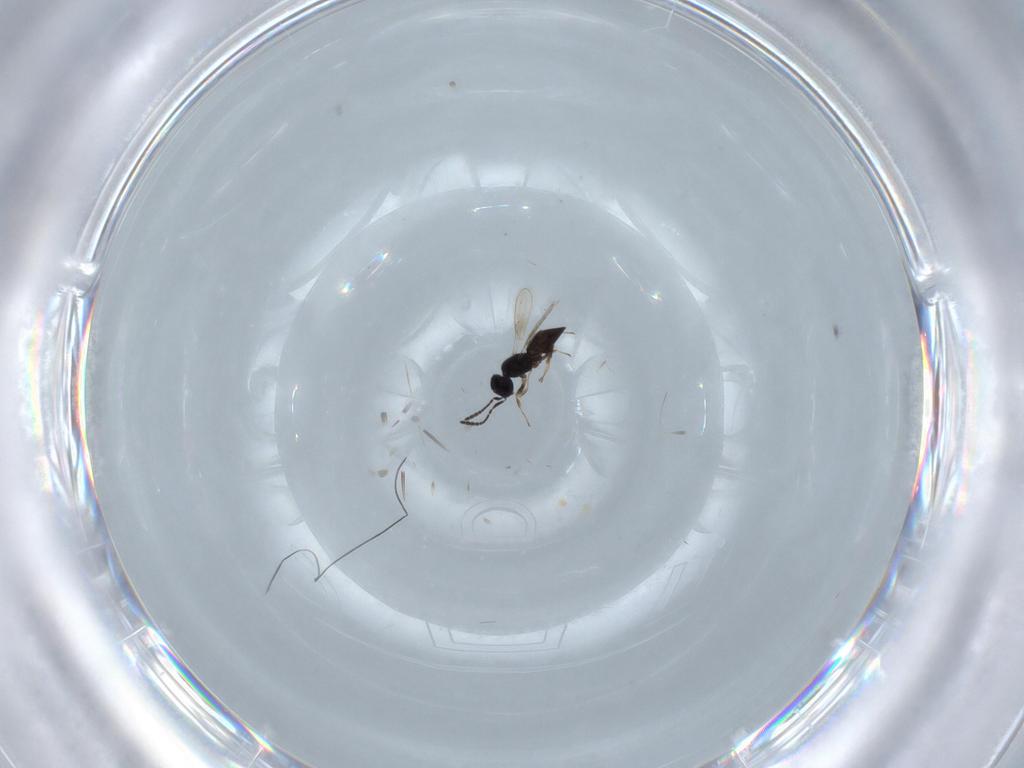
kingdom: Animalia
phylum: Arthropoda
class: Insecta
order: Hymenoptera
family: Scelionidae
